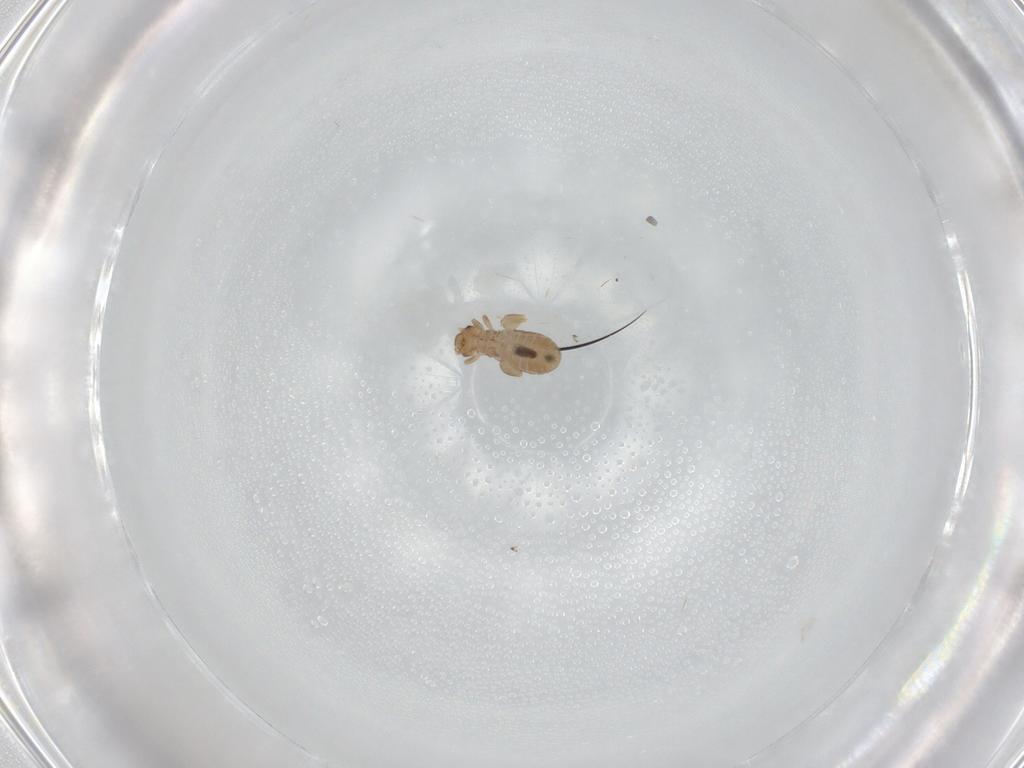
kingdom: Animalia
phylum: Arthropoda
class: Insecta
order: Psocodea
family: Liposcelididae
